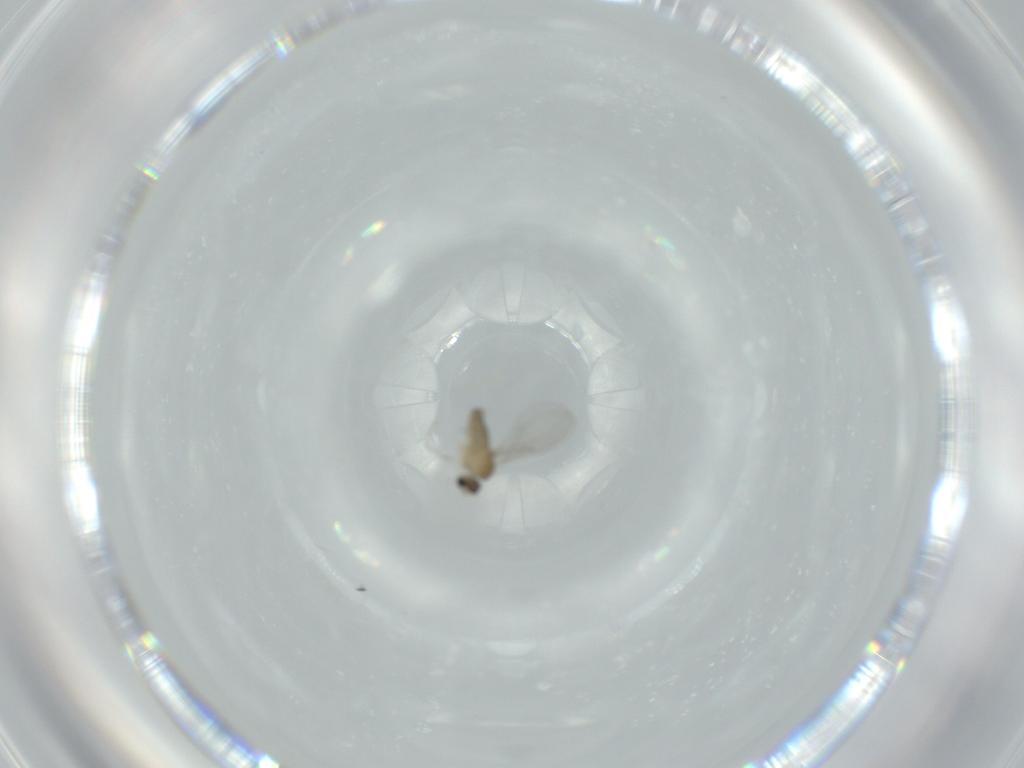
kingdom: Animalia
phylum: Arthropoda
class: Insecta
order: Diptera
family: Cecidomyiidae
